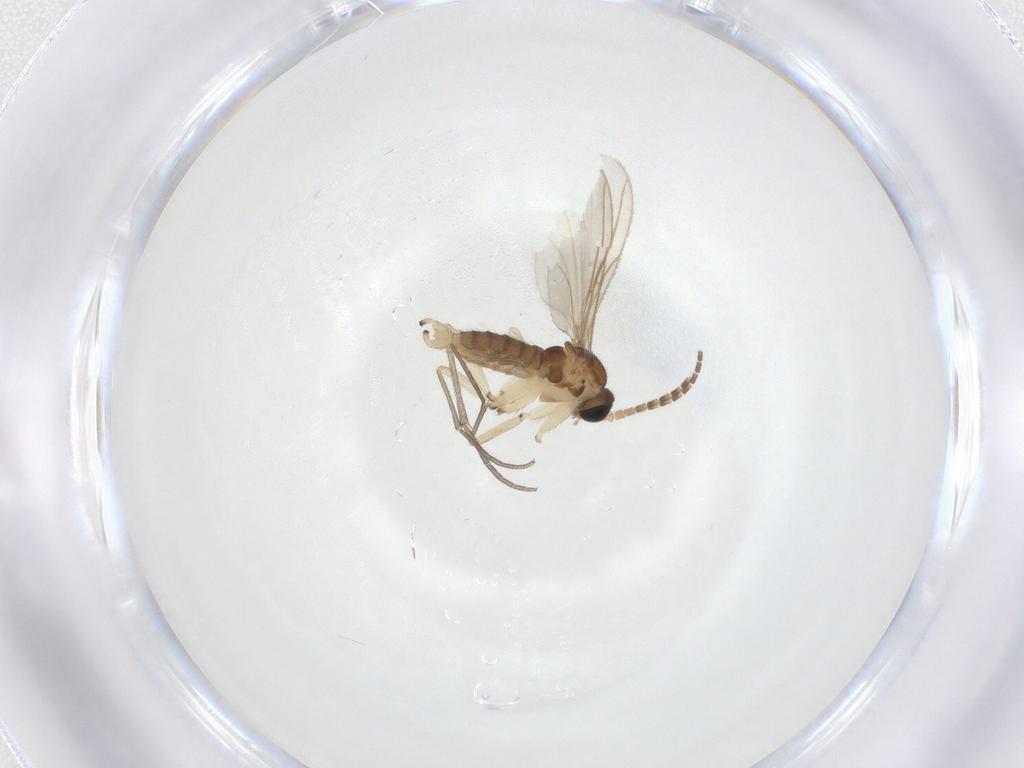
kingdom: Animalia
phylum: Arthropoda
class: Insecta
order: Diptera
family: Sciaridae
